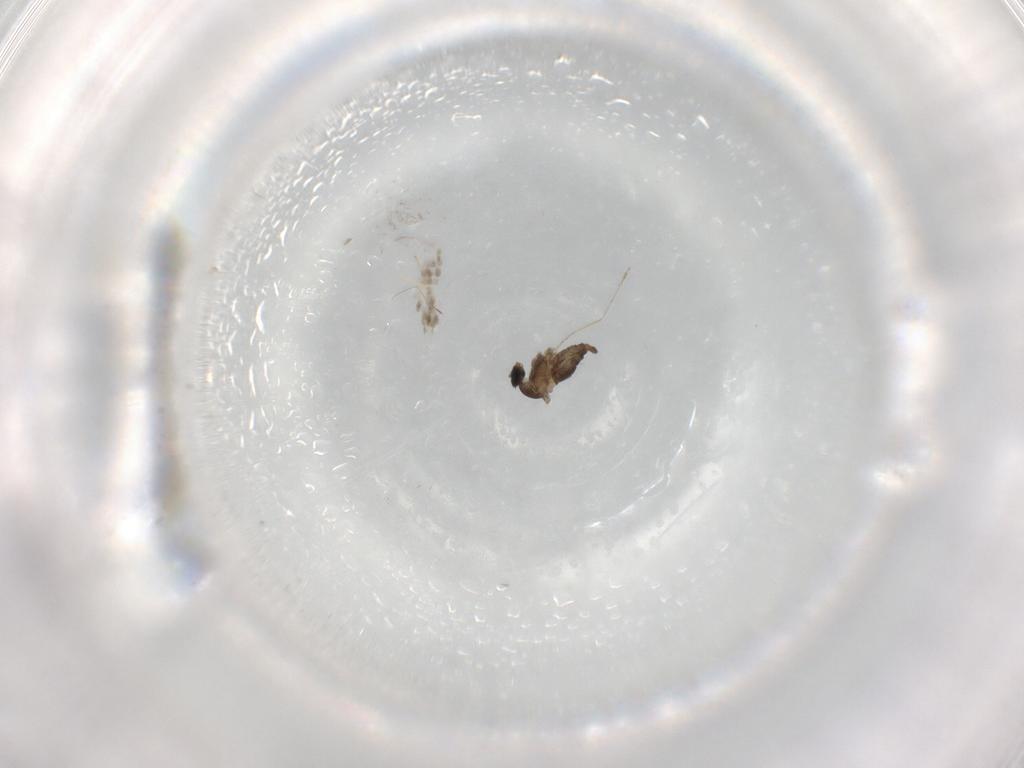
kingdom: Animalia
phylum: Arthropoda
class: Insecta
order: Diptera
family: Cecidomyiidae
